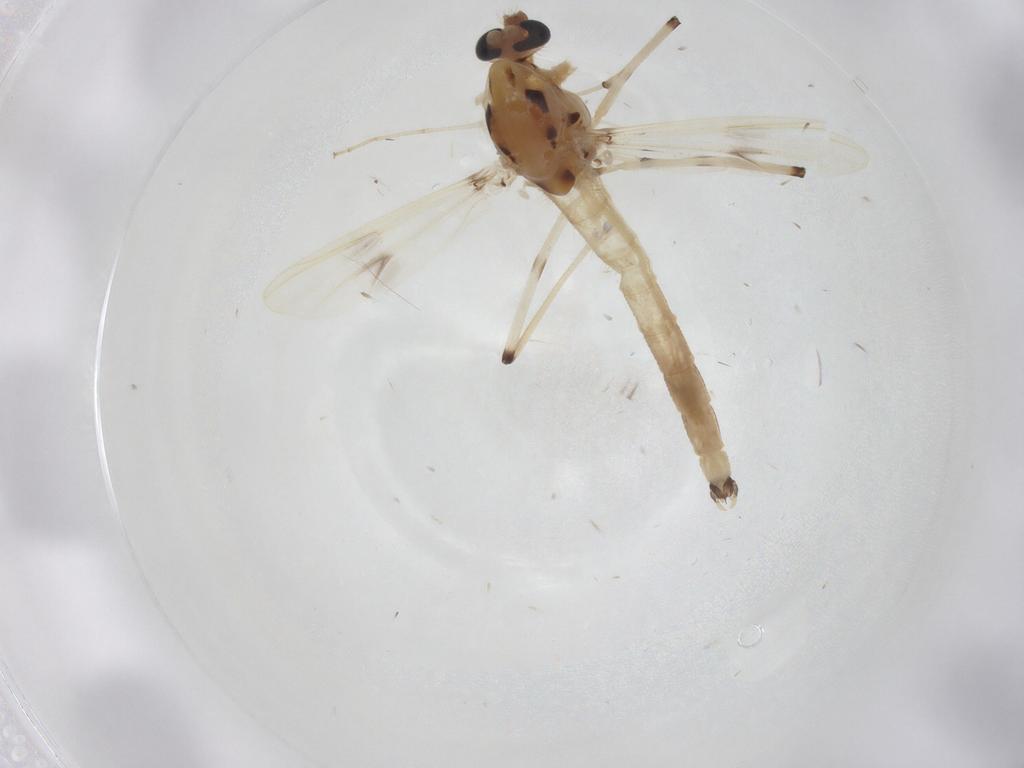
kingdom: Animalia
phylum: Arthropoda
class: Insecta
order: Diptera
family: Chironomidae
